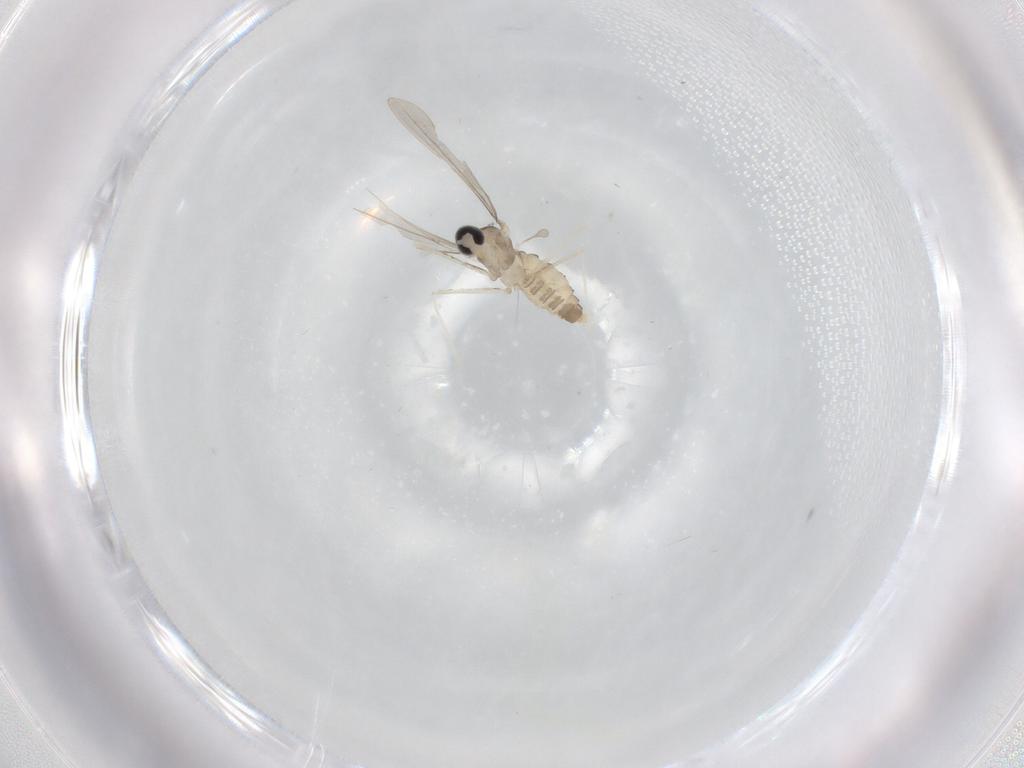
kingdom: Animalia
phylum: Arthropoda
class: Insecta
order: Diptera
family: Cecidomyiidae
